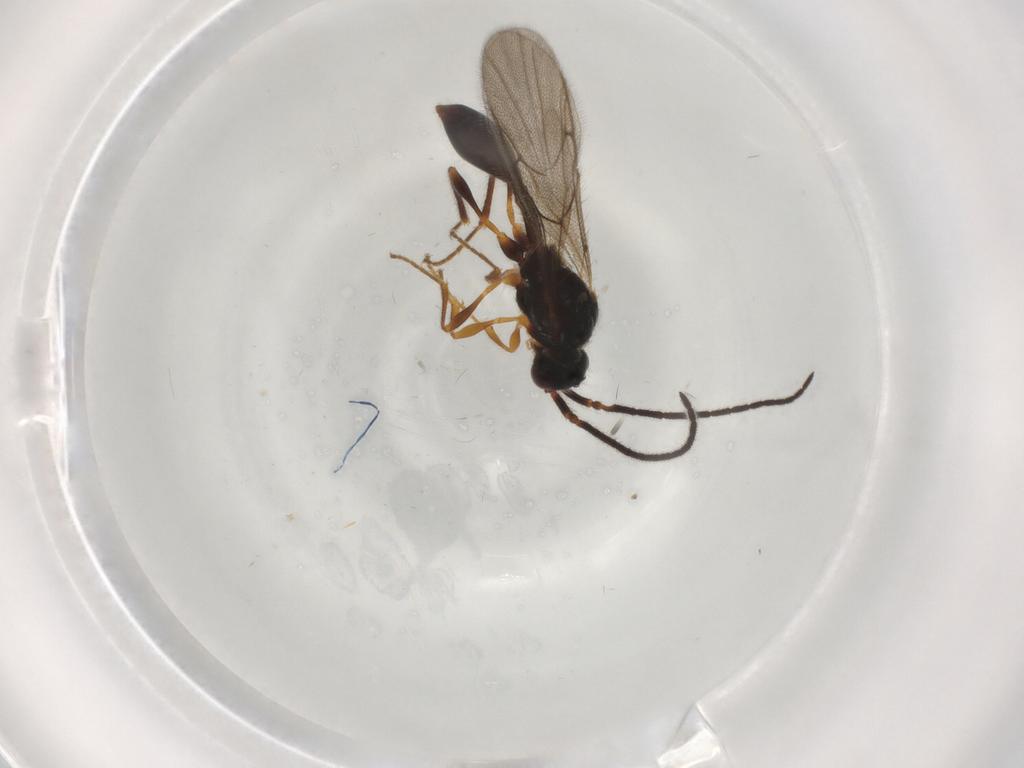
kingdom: Animalia
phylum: Arthropoda
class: Insecta
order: Hymenoptera
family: Diapriidae
